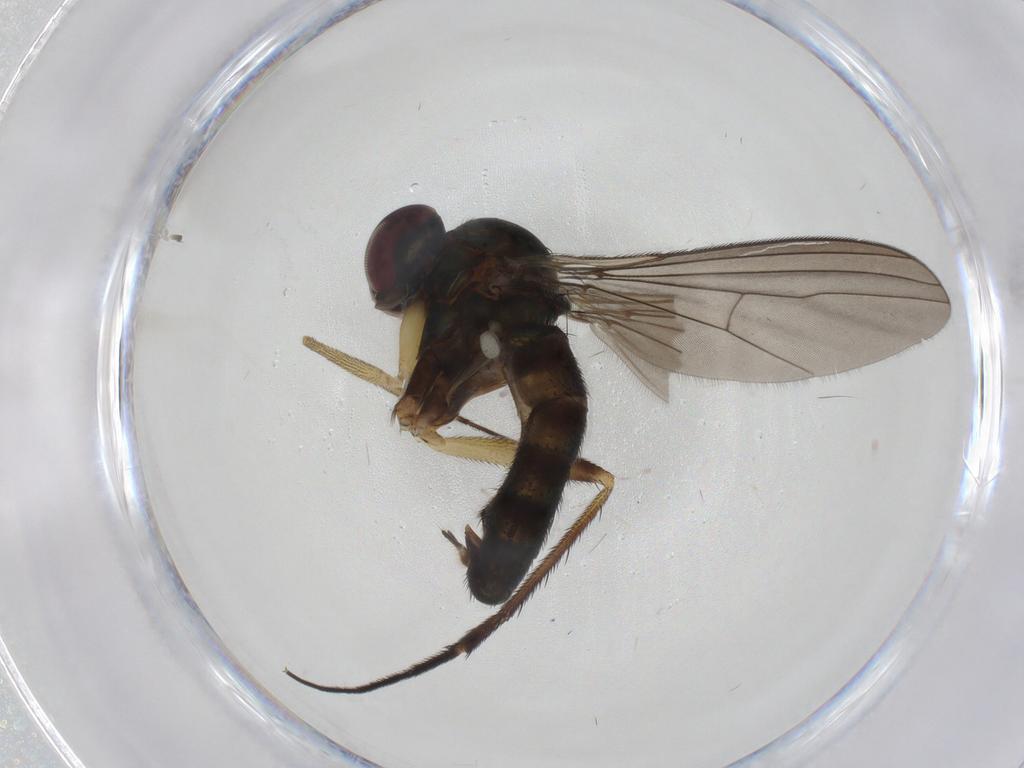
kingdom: Animalia
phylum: Arthropoda
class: Insecta
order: Diptera
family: Dolichopodidae
